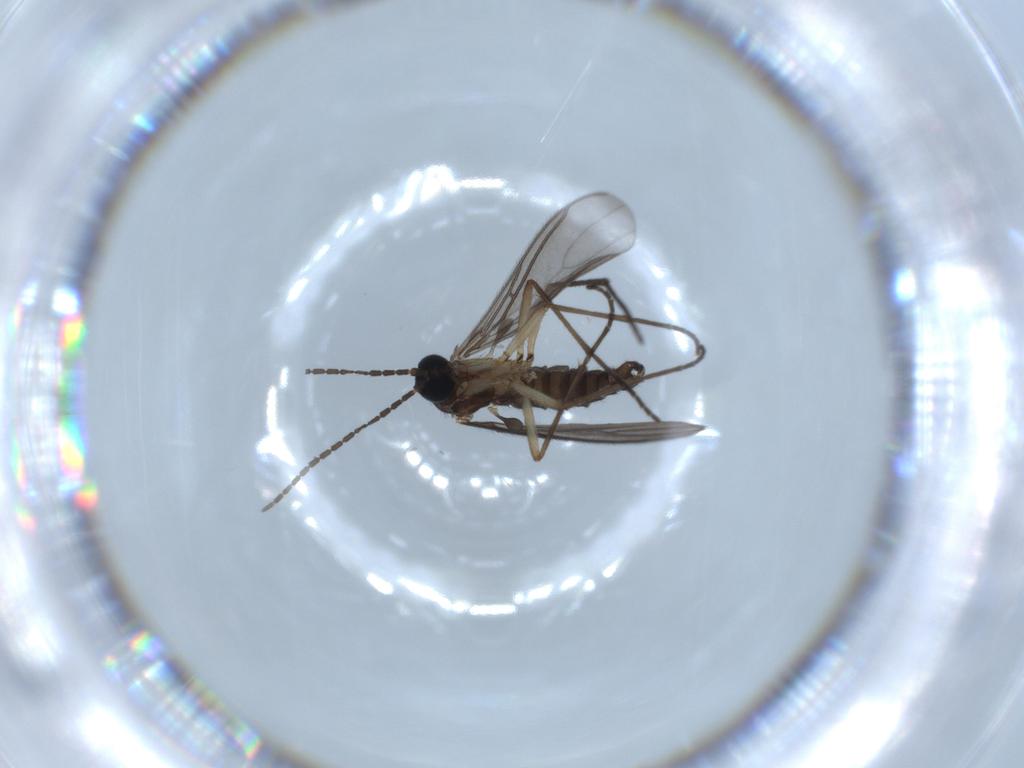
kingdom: Animalia
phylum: Arthropoda
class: Insecta
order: Diptera
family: Sciaridae
